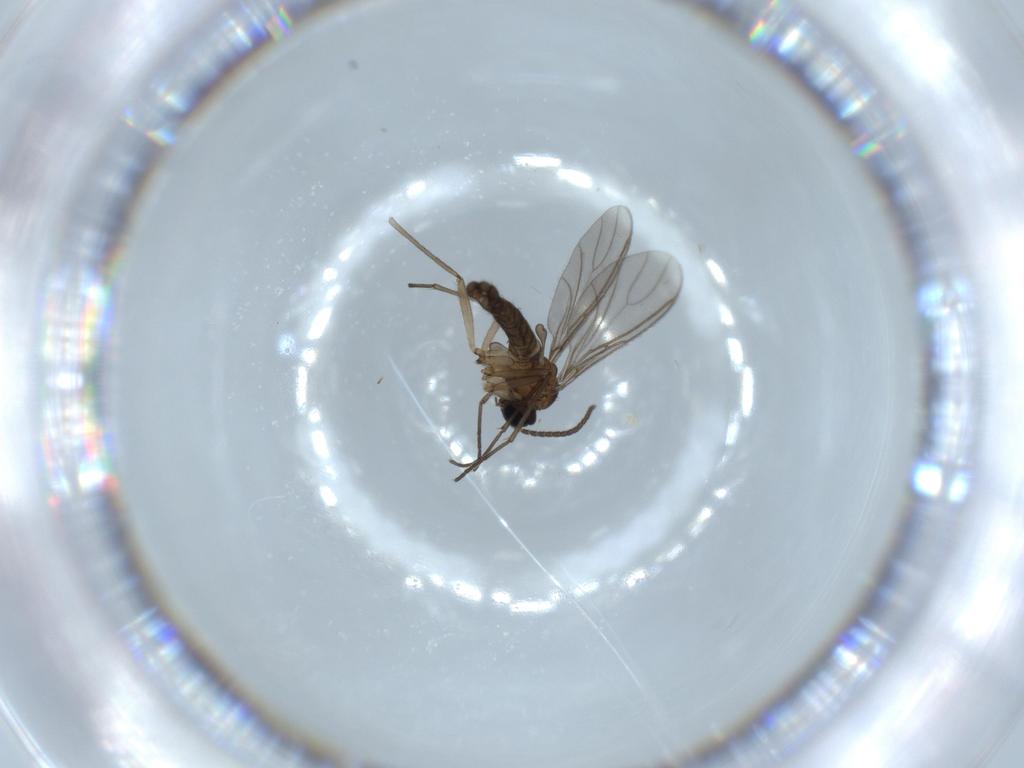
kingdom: Animalia
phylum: Arthropoda
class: Insecta
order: Diptera
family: Sciaridae
